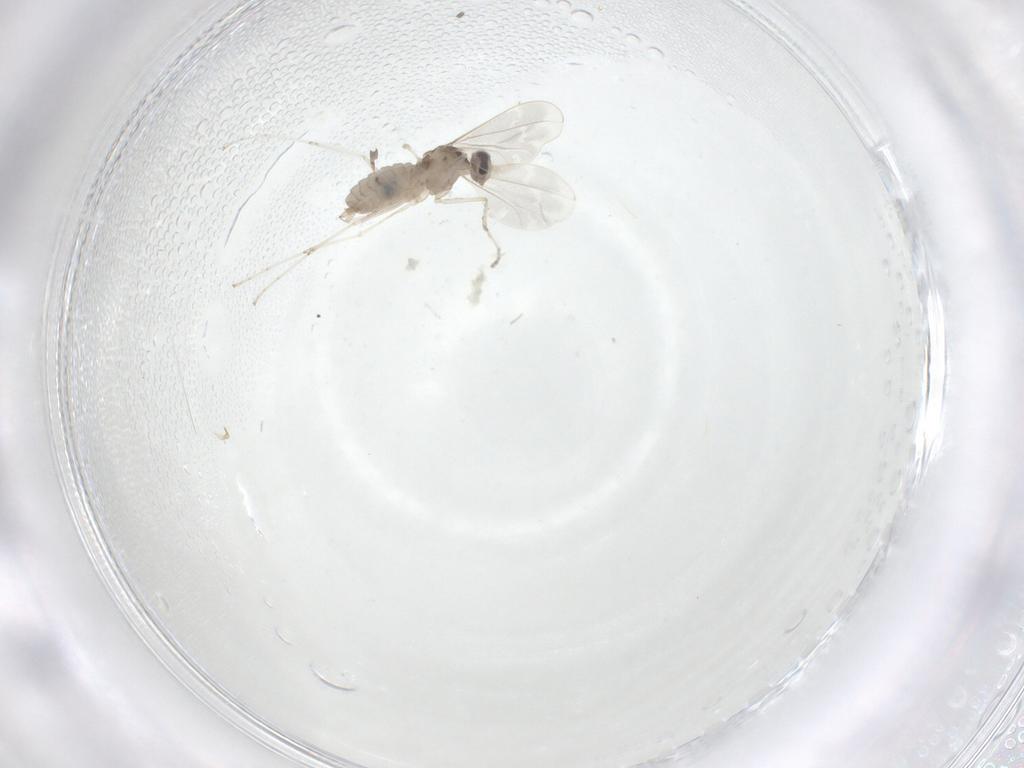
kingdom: Animalia
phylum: Arthropoda
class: Insecta
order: Diptera
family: Cecidomyiidae
